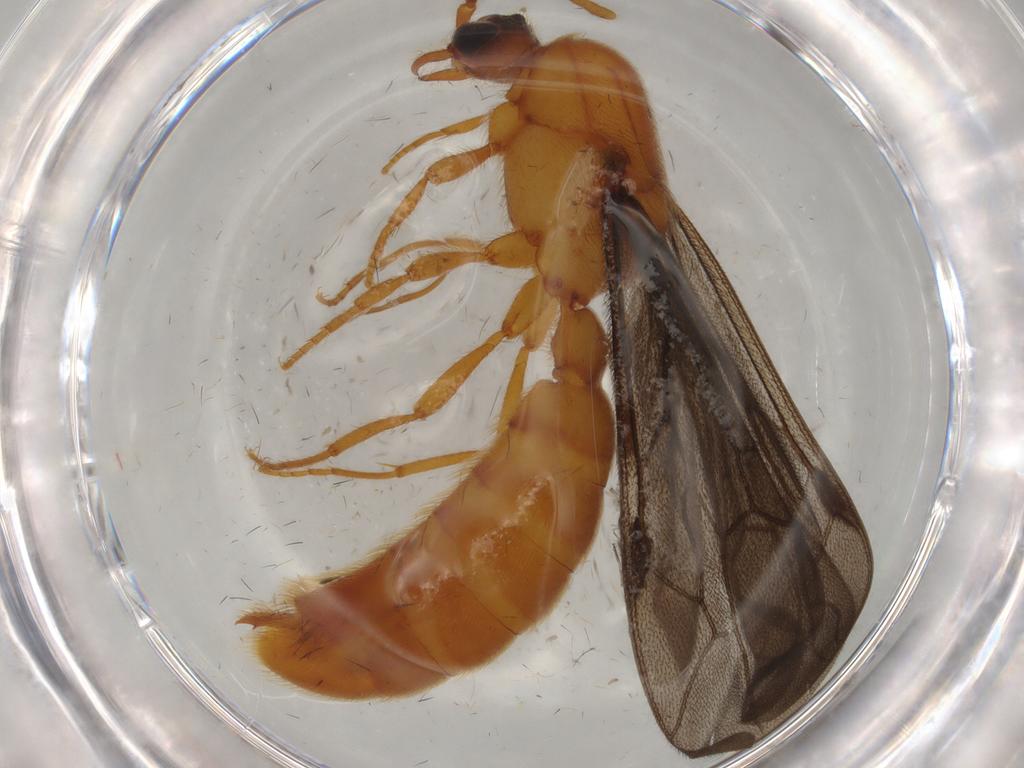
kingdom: Animalia
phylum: Arthropoda
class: Insecta
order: Hymenoptera
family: Formicidae
